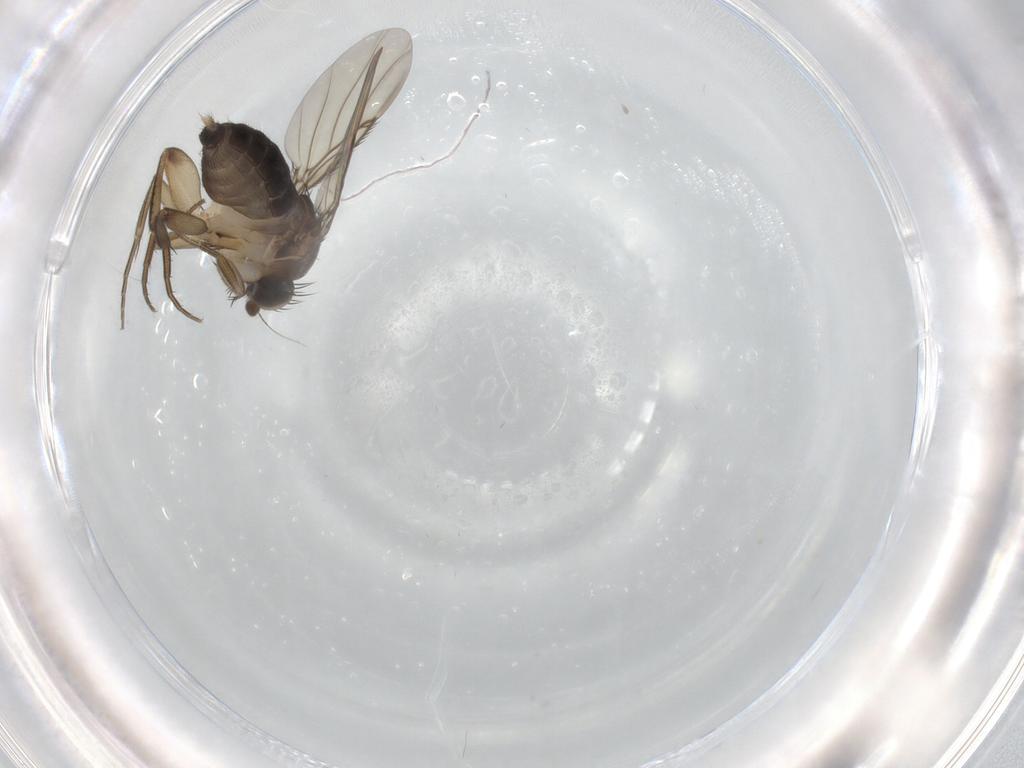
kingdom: Animalia
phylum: Arthropoda
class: Insecta
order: Diptera
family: Phoridae
